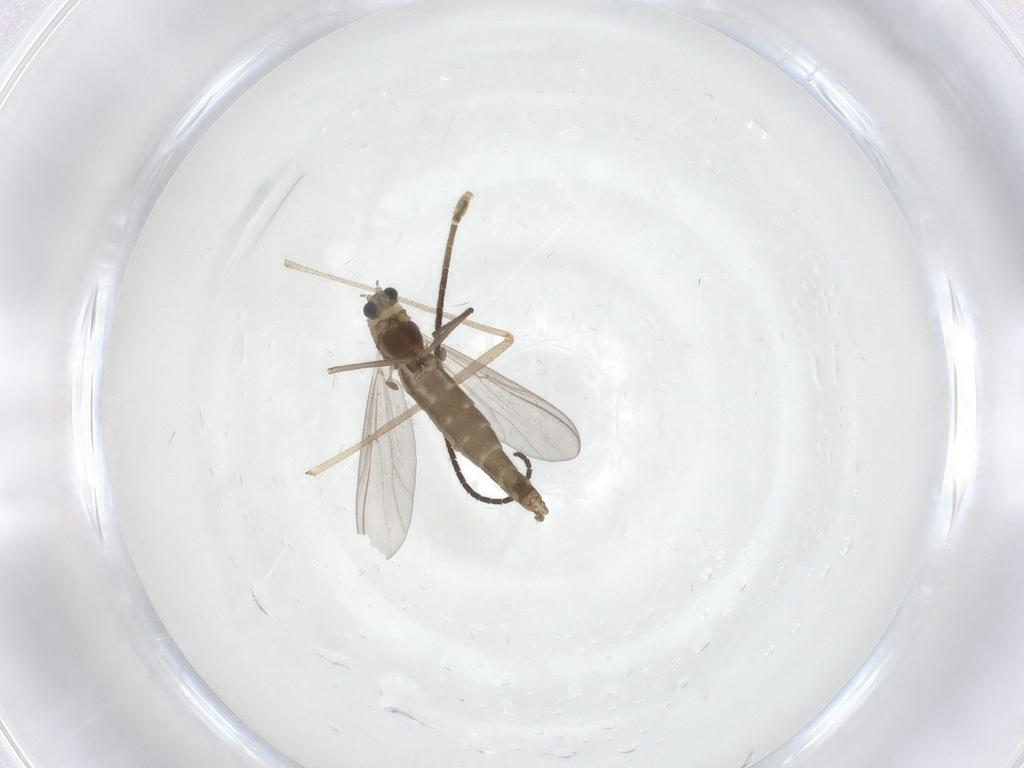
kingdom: Animalia
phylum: Arthropoda
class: Insecta
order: Diptera
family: Chironomidae
